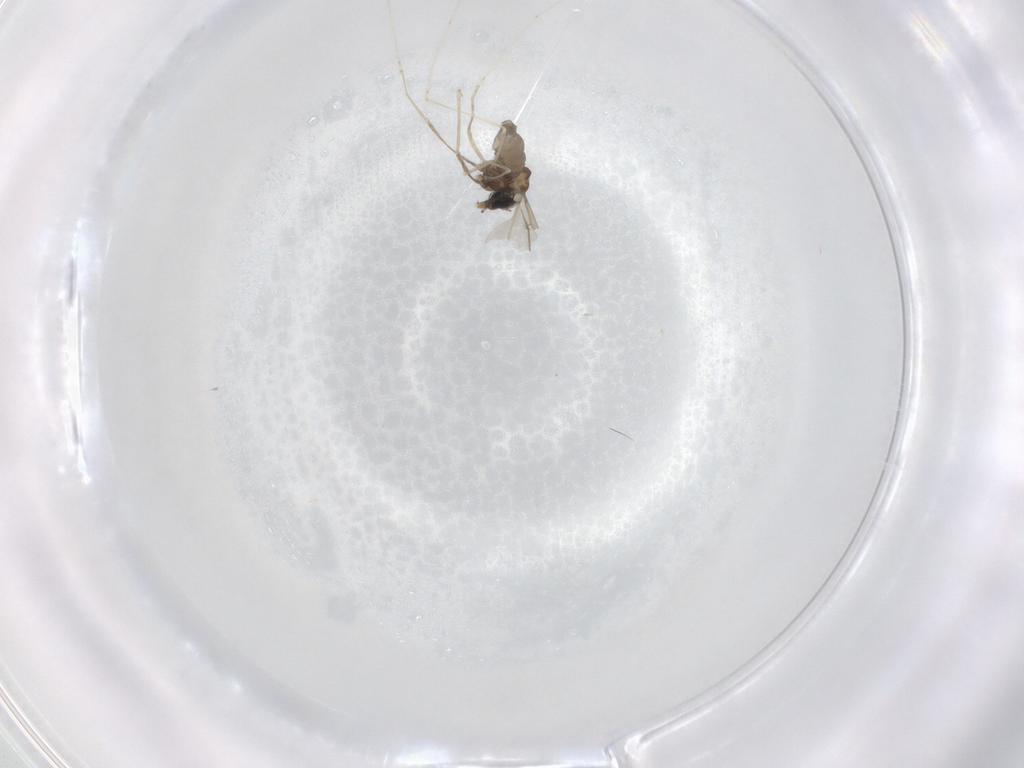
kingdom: Animalia
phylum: Arthropoda
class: Insecta
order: Diptera
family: Cecidomyiidae
